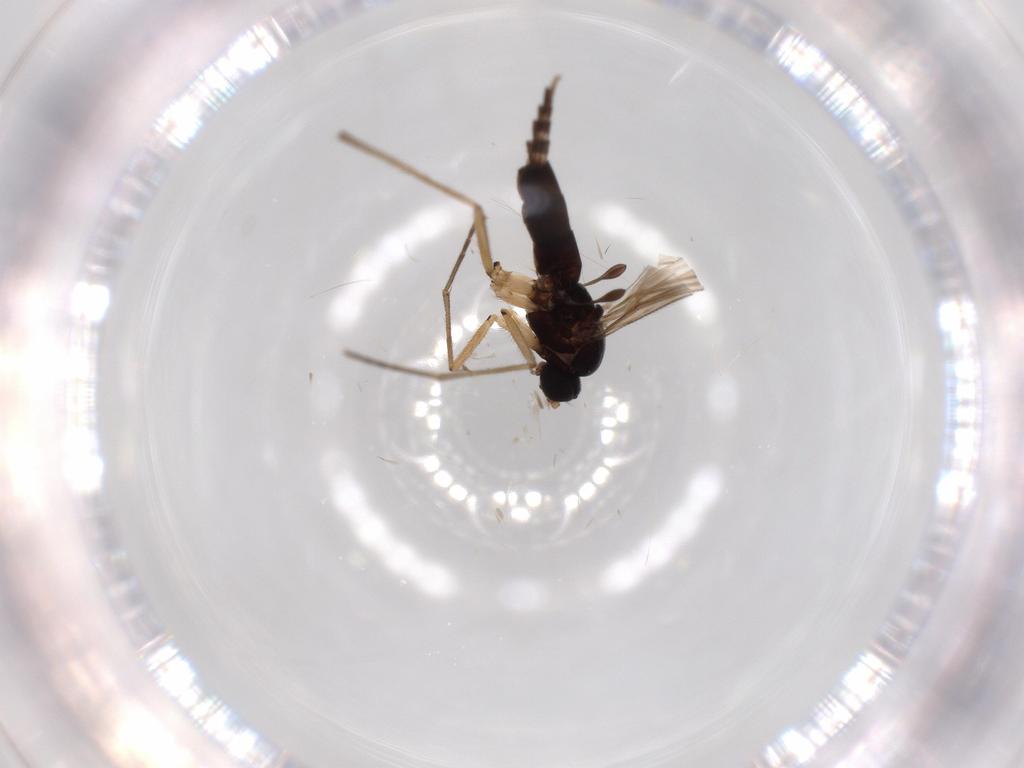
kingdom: Animalia
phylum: Arthropoda
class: Insecta
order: Diptera
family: Sciaridae
